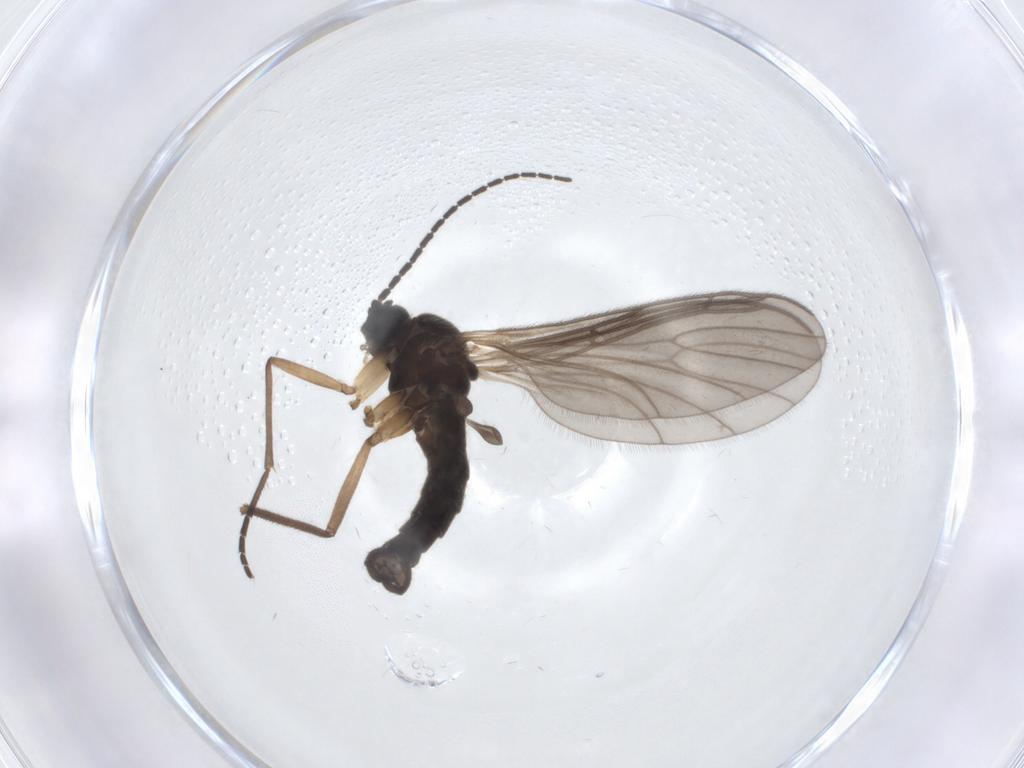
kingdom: Animalia
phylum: Arthropoda
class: Insecta
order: Diptera
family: Sciaridae
